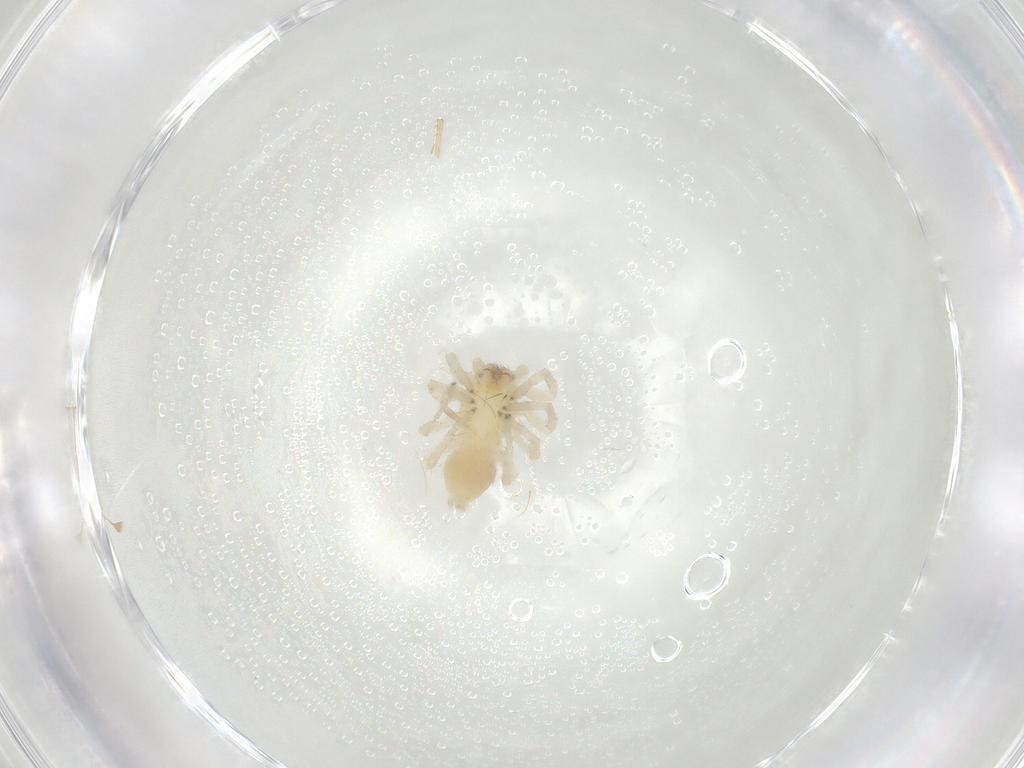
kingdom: Animalia
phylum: Arthropoda
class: Arachnida
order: Araneae
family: Clubionidae
